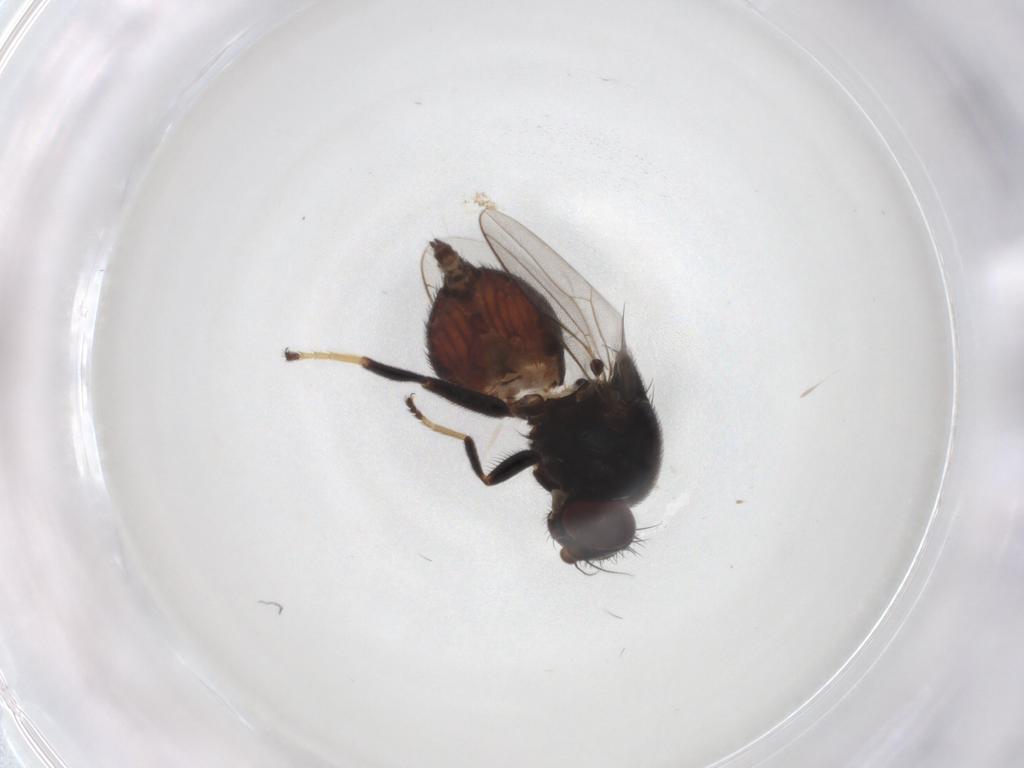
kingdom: Animalia
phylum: Arthropoda
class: Insecta
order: Diptera
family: Chloropidae
